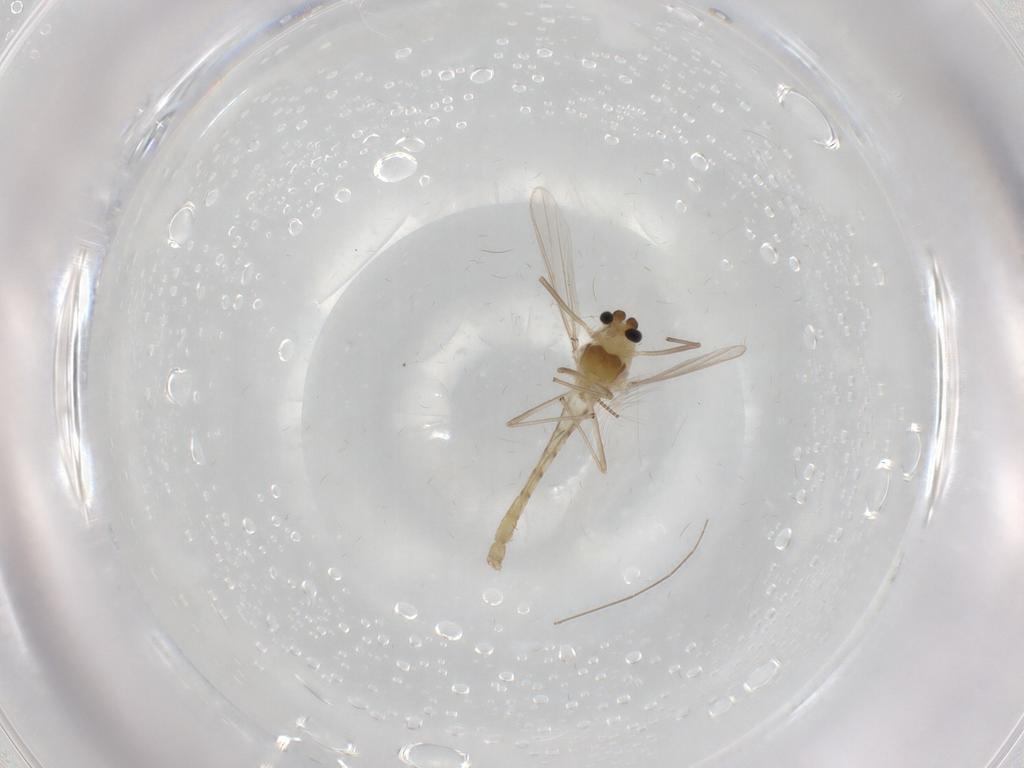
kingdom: Animalia
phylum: Arthropoda
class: Insecta
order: Diptera
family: Chironomidae
